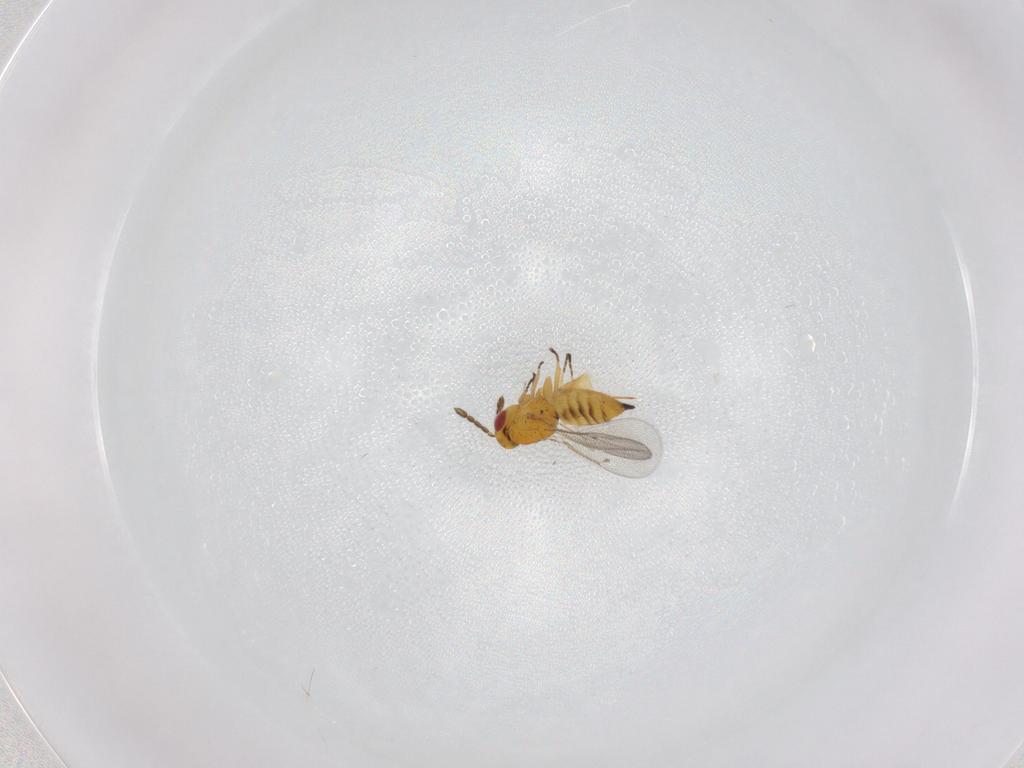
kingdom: Animalia
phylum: Arthropoda
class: Insecta
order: Hymenoptera
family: Eulophidae
